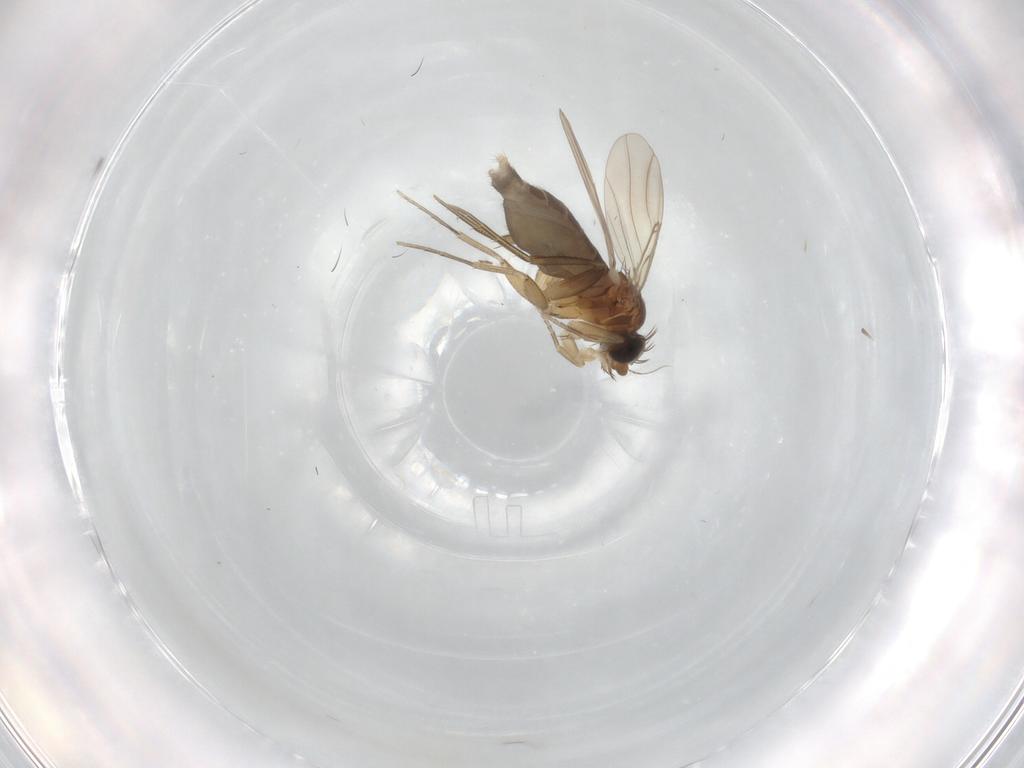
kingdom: Animalia
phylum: Arthropoda
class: Insecta
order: Diptera
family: Phoridae
